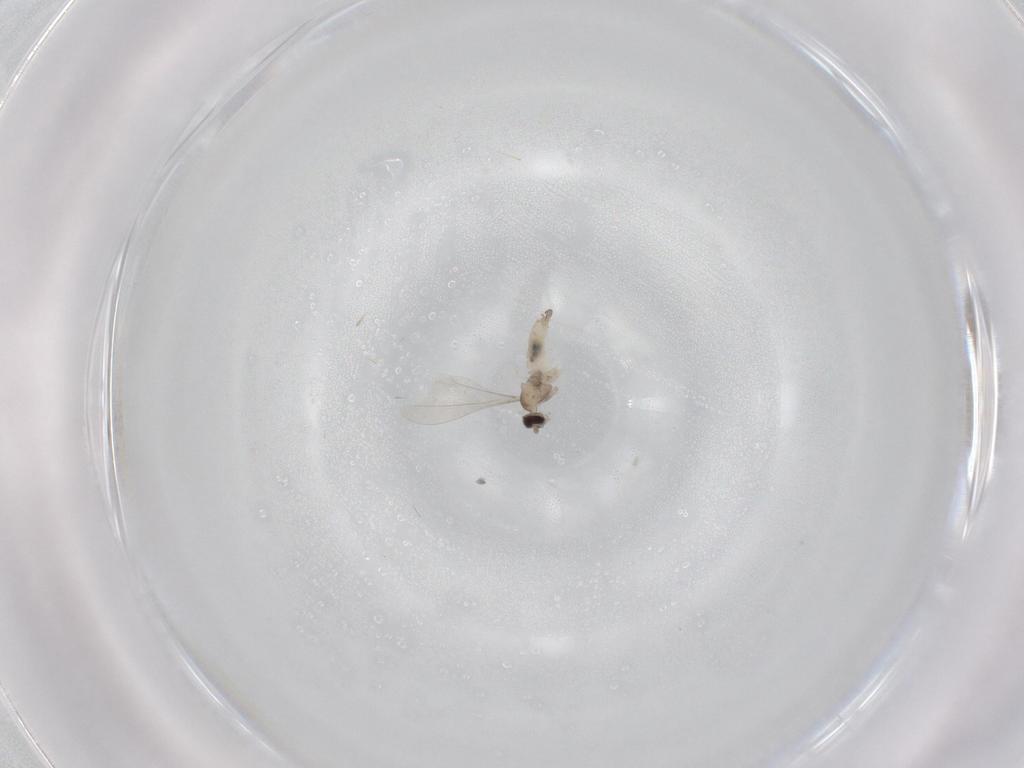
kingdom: Animalia
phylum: Arthropoda
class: Insecta
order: Diptera
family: Cecidomyiidae
